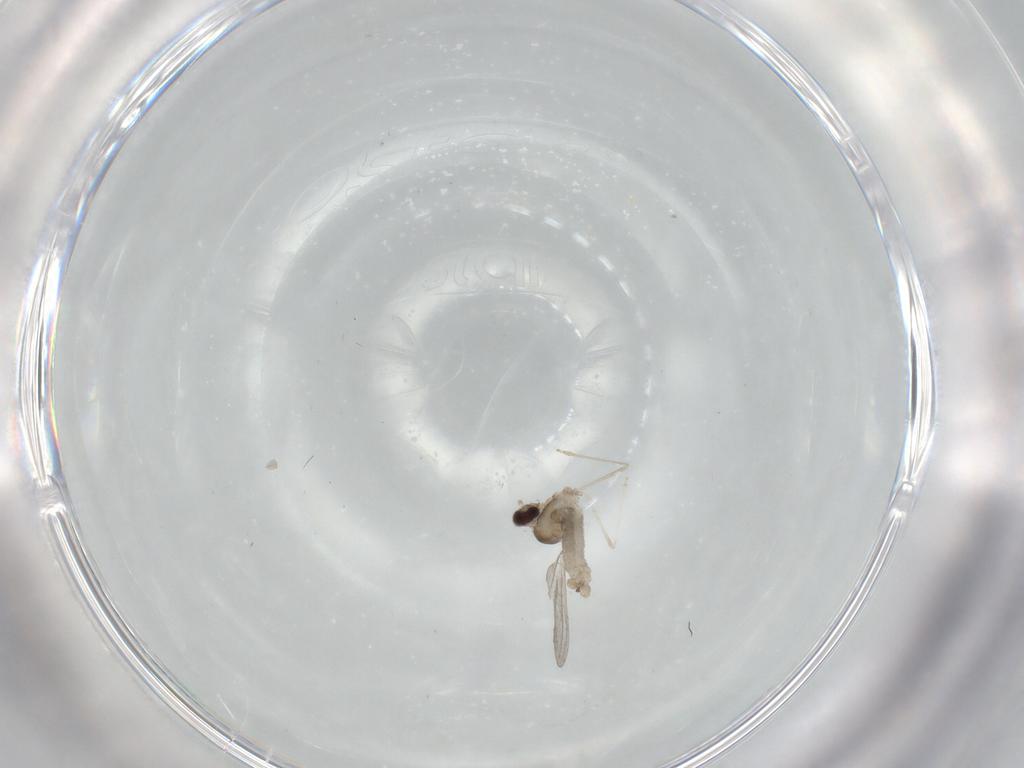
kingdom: Animalia
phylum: Arthropoda
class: Insecta
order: Diptera
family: Cecidomyiidae
